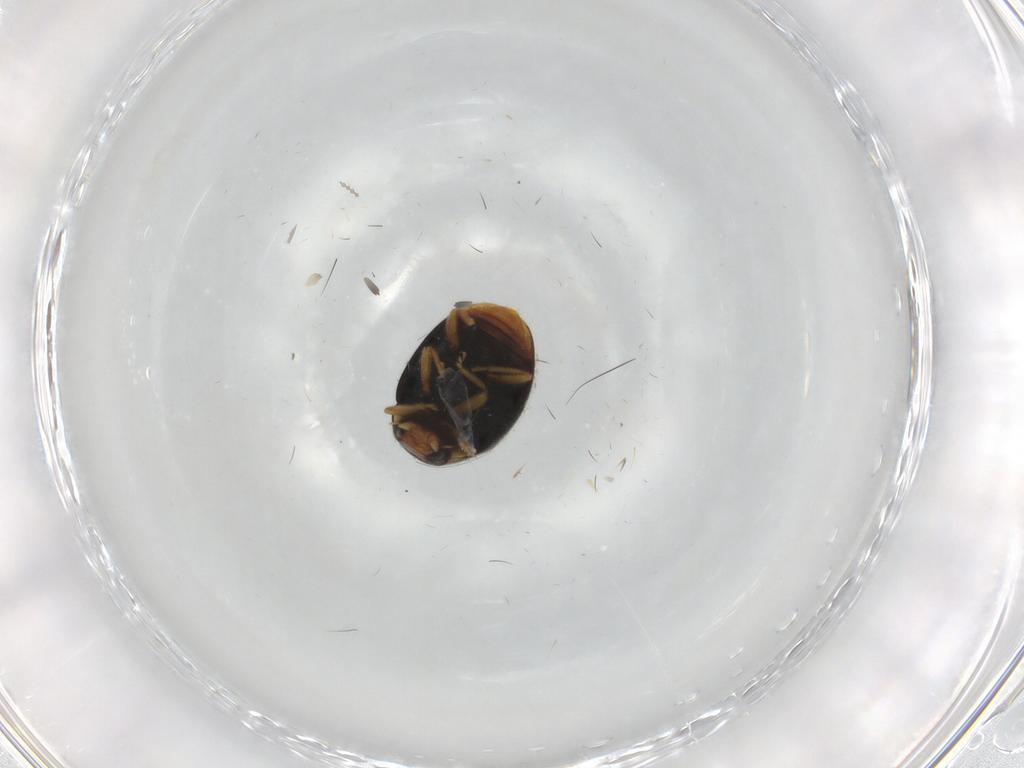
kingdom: Animalia
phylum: Arthropoda
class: Insecta
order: Coleoptera
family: Coccinellidae
